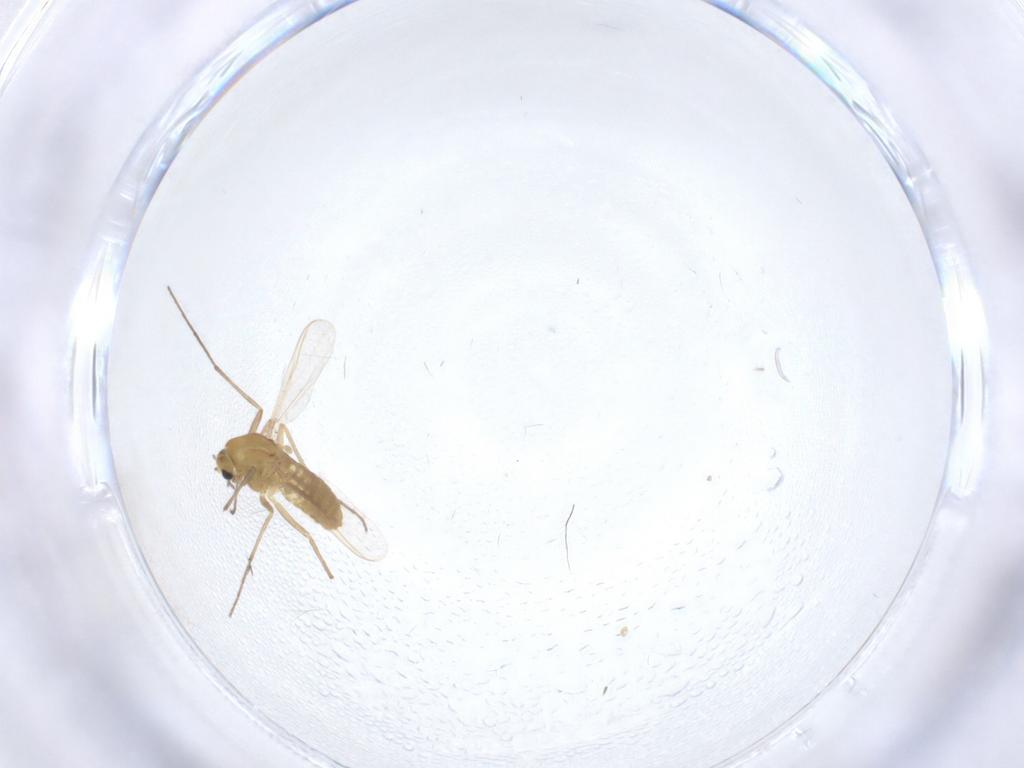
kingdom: Animalia
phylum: Arthropoda
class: Insecta
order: Diptera
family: Chironomidae
